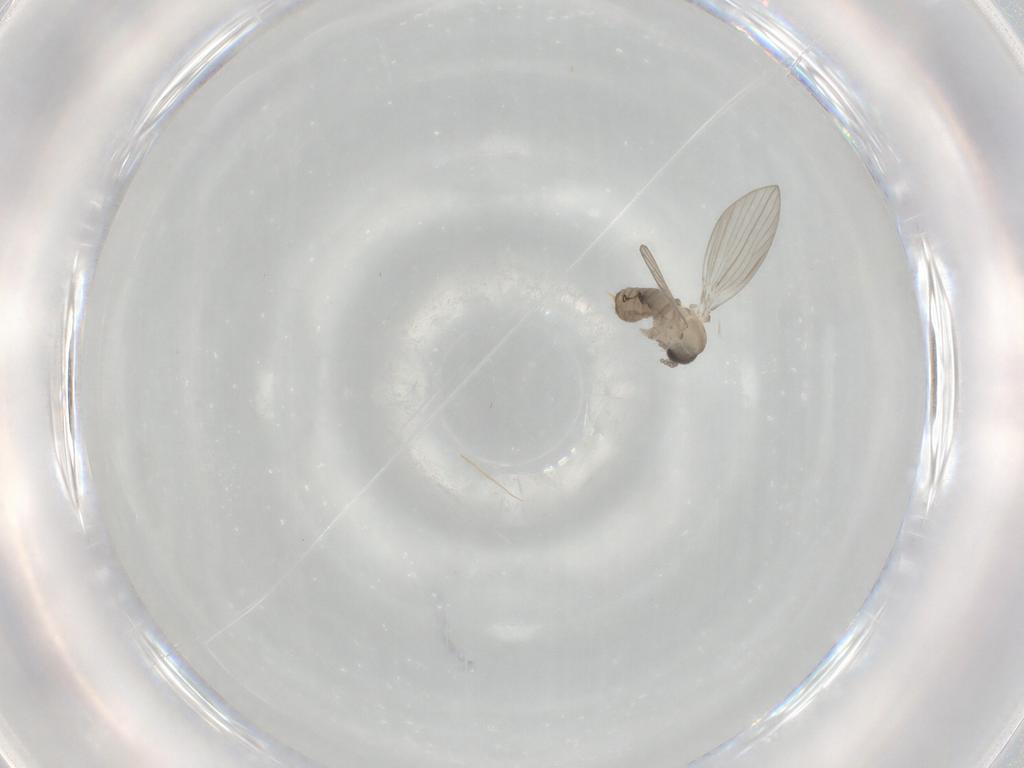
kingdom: Animalia
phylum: Arthropoda
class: Insecta
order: Diptera
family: Psychodidae
